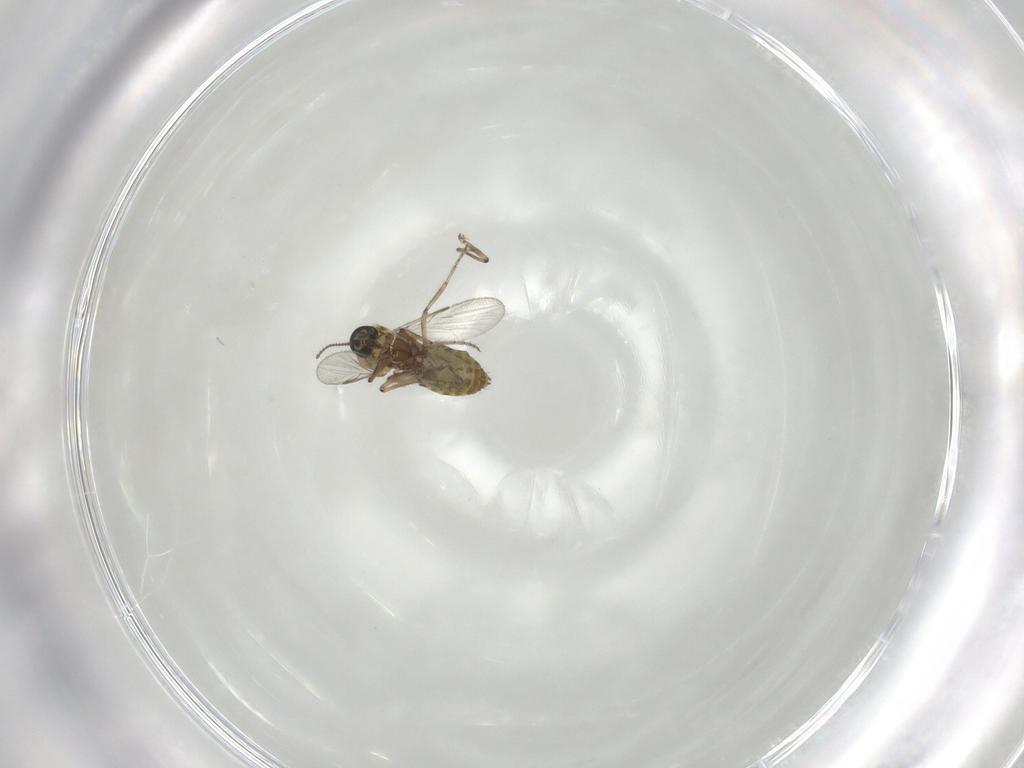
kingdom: Animalia
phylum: Arthropoda
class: Insecta
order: Diptera
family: Ceratopogonidae
